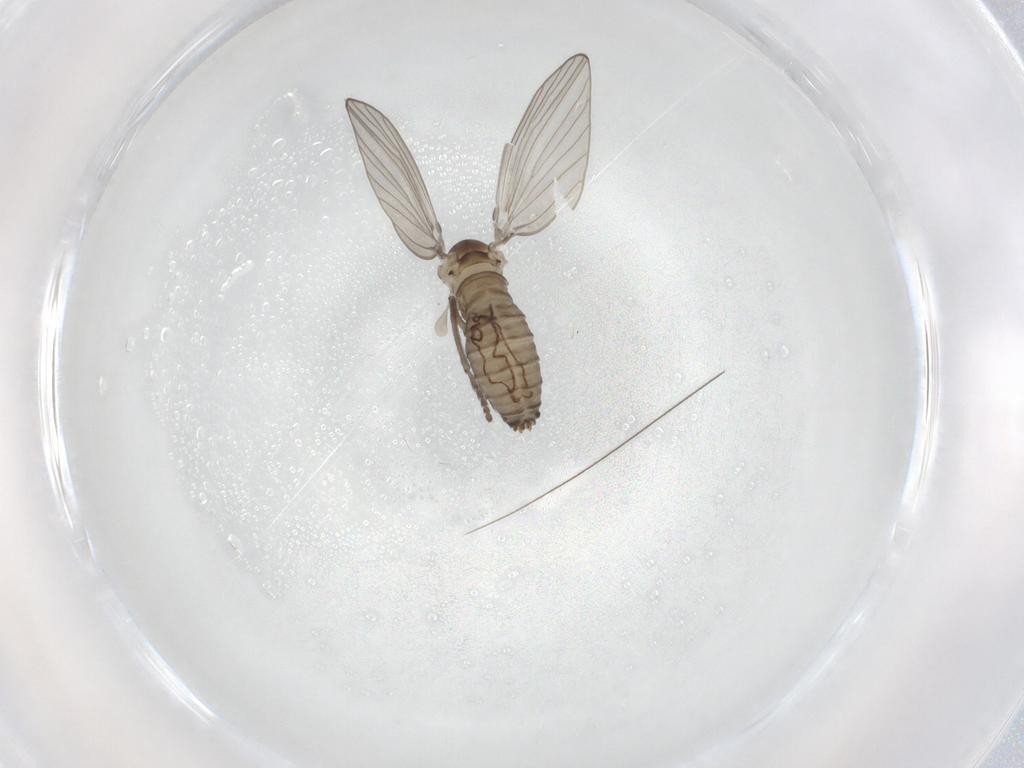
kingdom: Animalia
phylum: Arthropoda
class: Insecta
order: Diptera
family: Psychodidae
